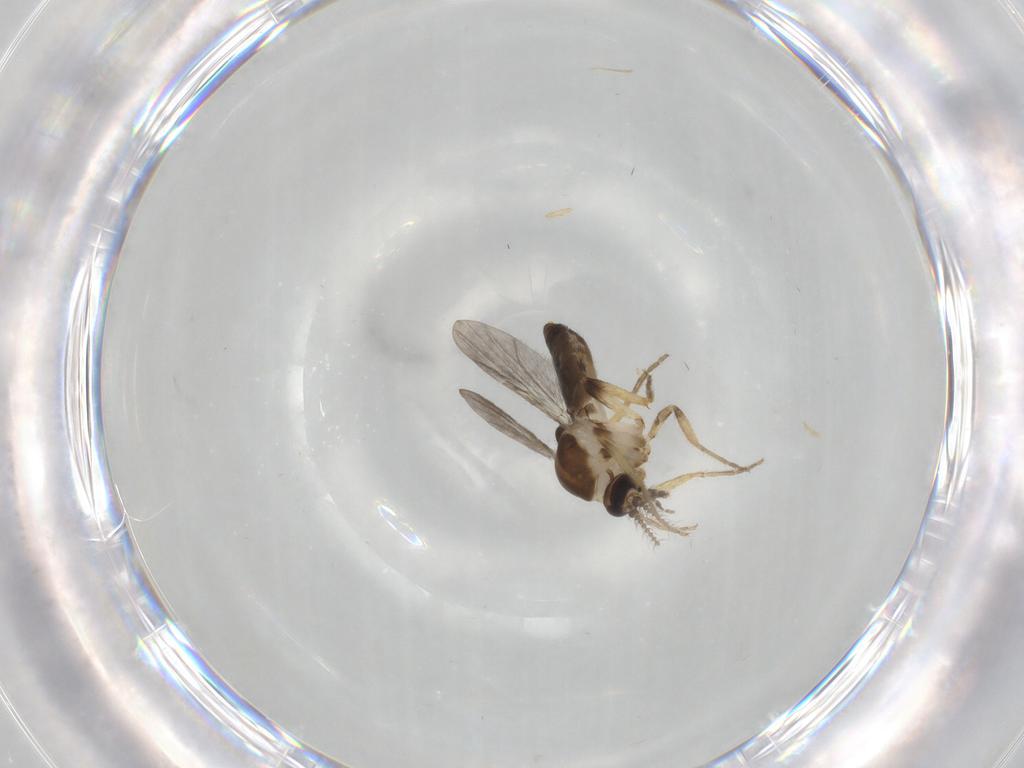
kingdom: Animalia
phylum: Arthropoda
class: Insecta
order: Diptera
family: Ceratopogonidae
